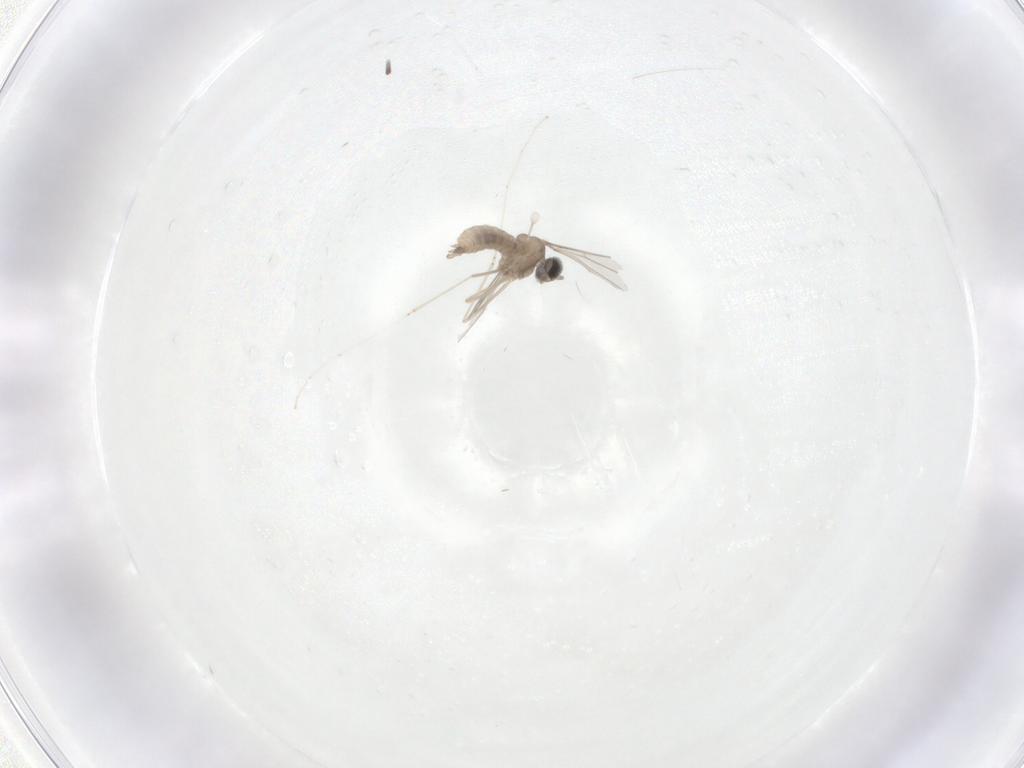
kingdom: Animalia
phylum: Arthropoda
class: Insecta
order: Diptera
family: Cecidomyiidae
